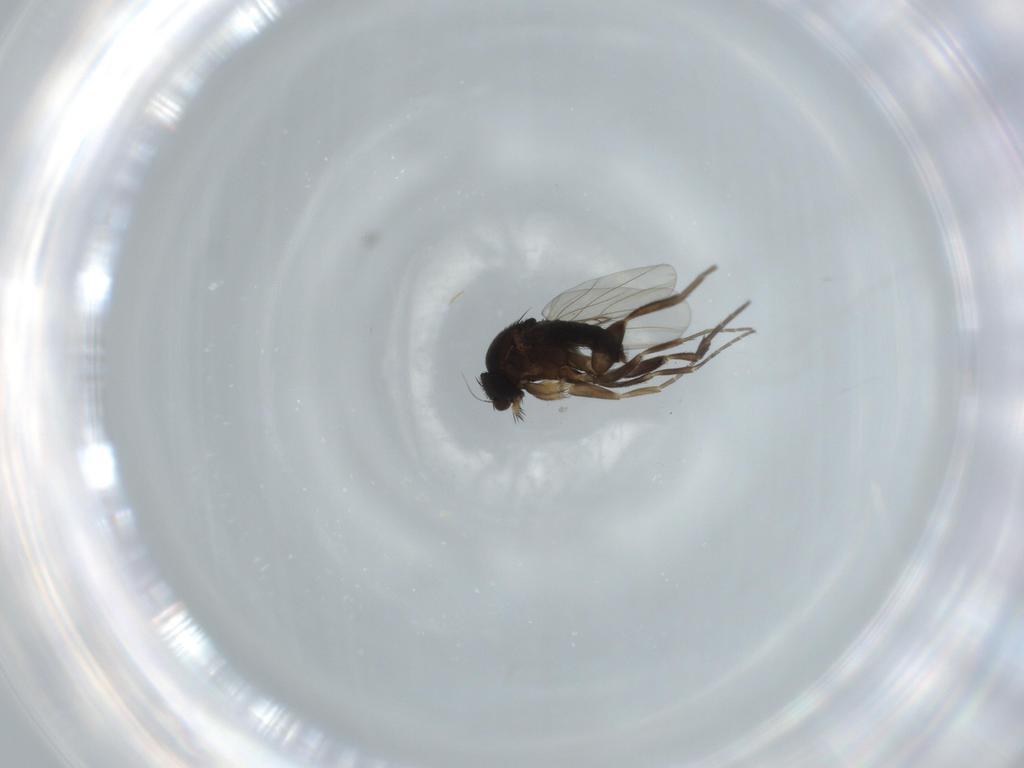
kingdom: Animalia
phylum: Arthropoda
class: Insecta
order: Diptera
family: Phoridae
